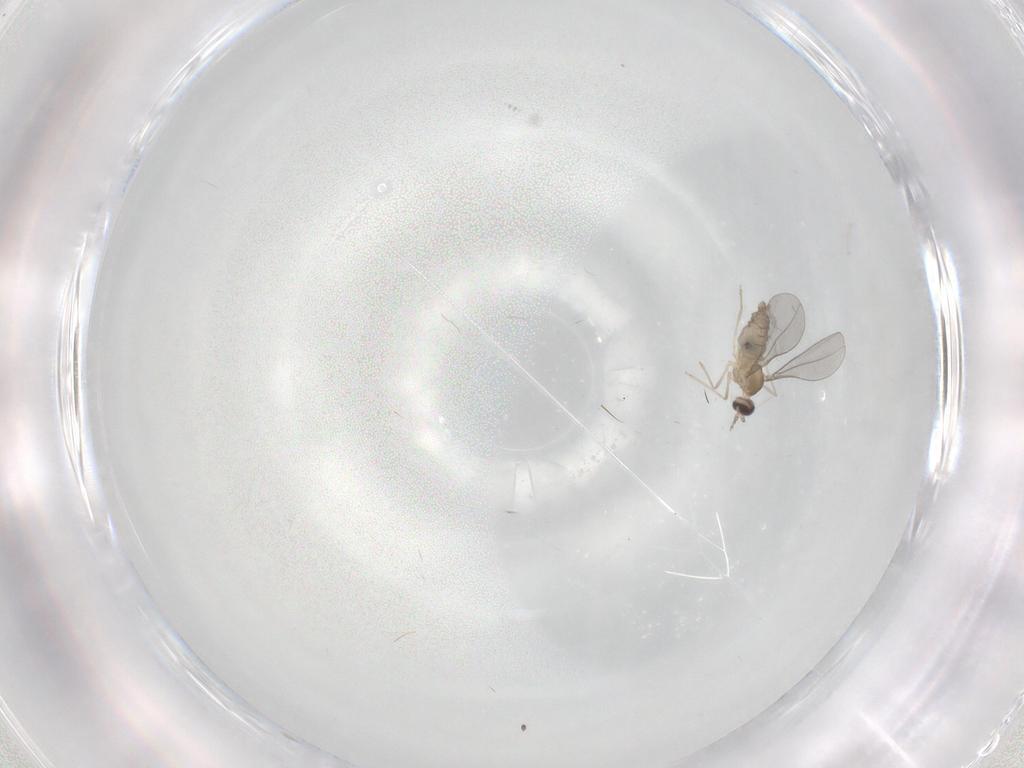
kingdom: Animalia
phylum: Arthropoda
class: Insecta
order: Diptera
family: Cecidomyiidae
